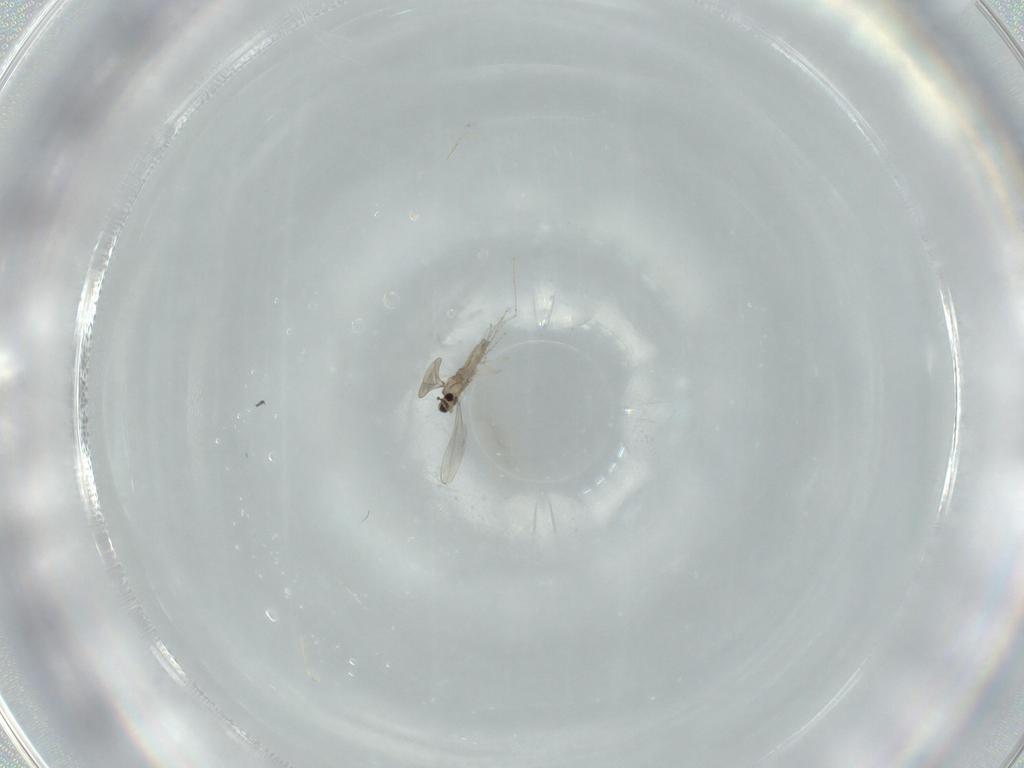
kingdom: Animalia
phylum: Arthropoda
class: Insecta
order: Diptera
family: Cecidomyiidae
